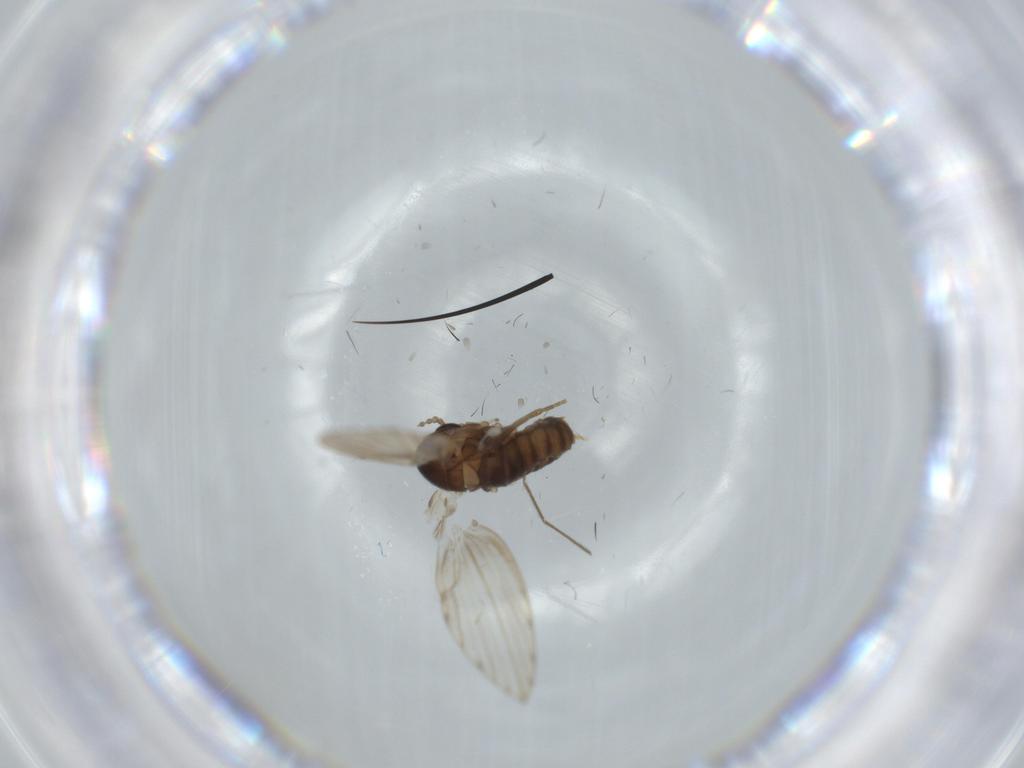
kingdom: Animalia
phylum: Arthropoda
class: Insecta
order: Diptera
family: Psychodidae
